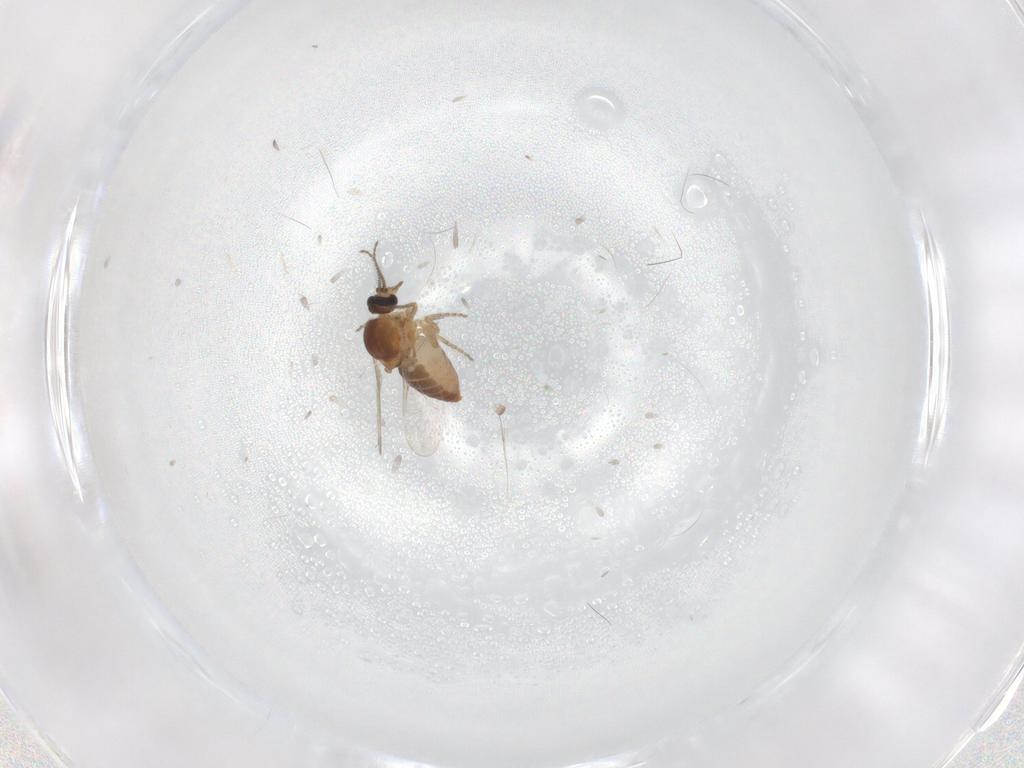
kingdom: Animalia
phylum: Arthropoda
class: Insecta
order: Diptera
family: Ceratopogonidae
